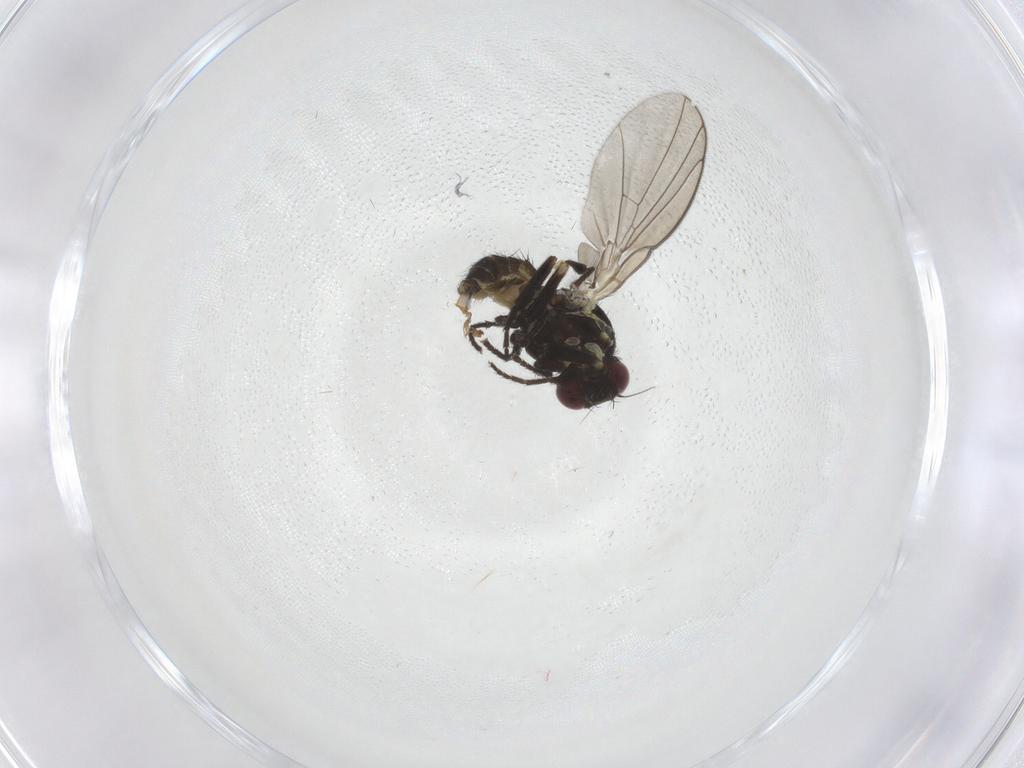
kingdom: Animalia
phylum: Arthropoda
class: Insecta
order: Diptera
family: Agromyzidae
